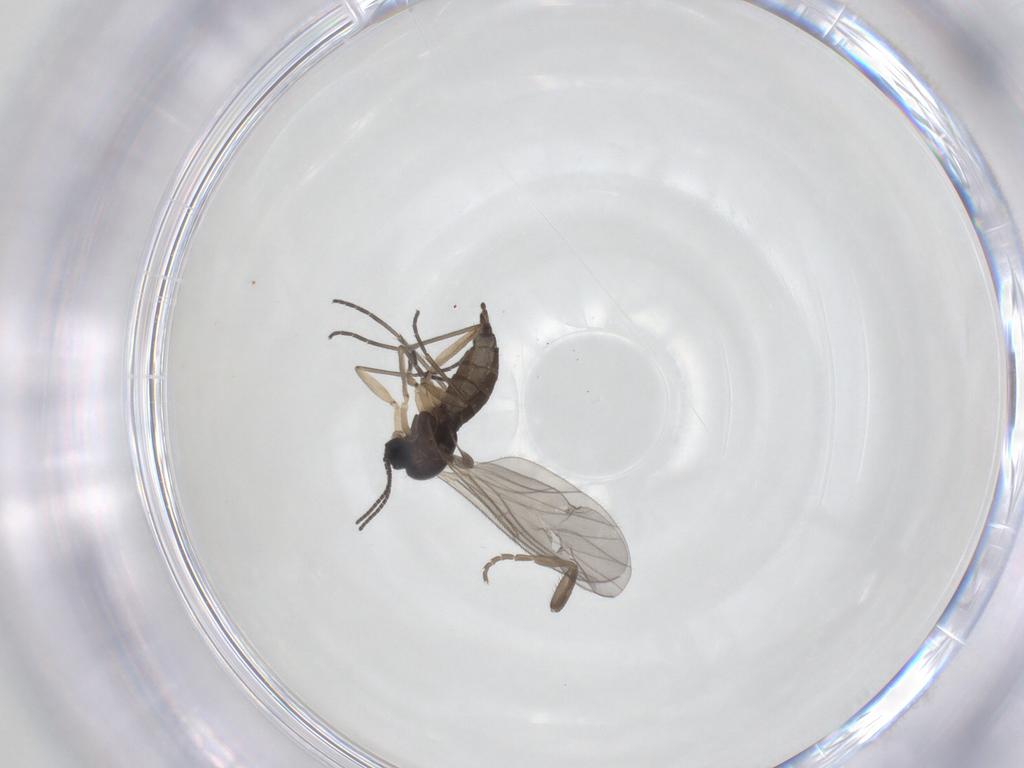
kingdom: Animalia
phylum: Arthropoda
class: Insecta
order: Diptera
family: Sciaridae
